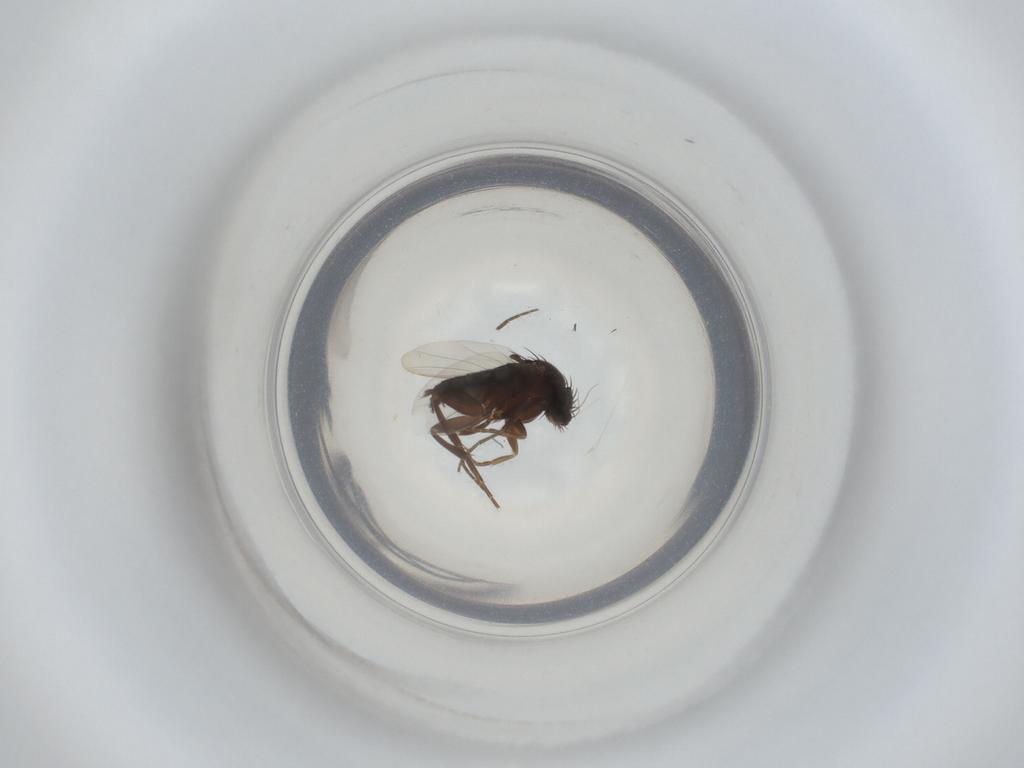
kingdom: Animalia
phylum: Arthropoda
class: Insecta
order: Diptera
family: Phoridae
